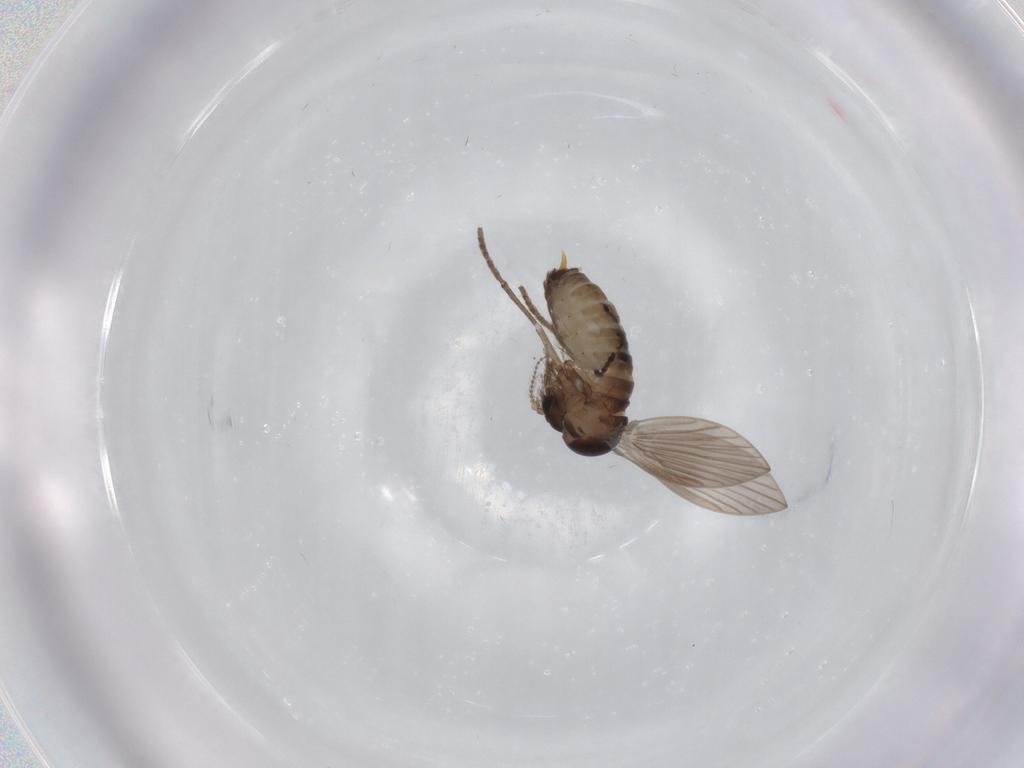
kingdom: Animalia
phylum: Arthropoda
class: Insecta
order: Diptera
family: Psychodidae
